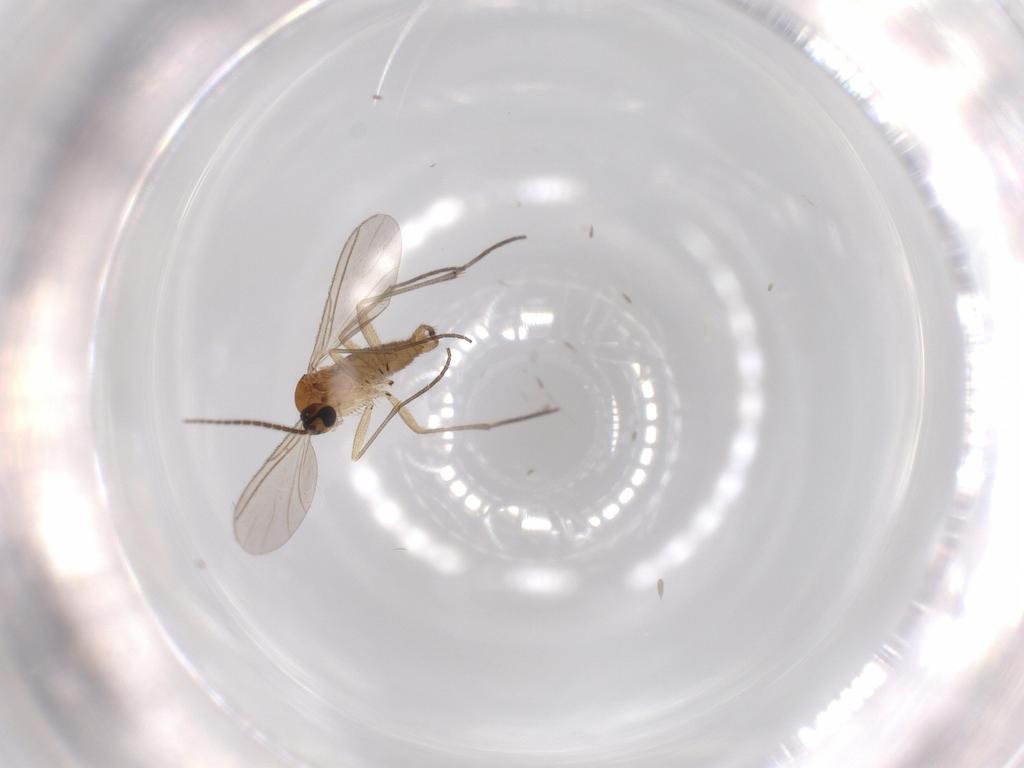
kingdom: Animalia
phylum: Arthropoda
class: Insecta
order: Diptera
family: Sciaridae
